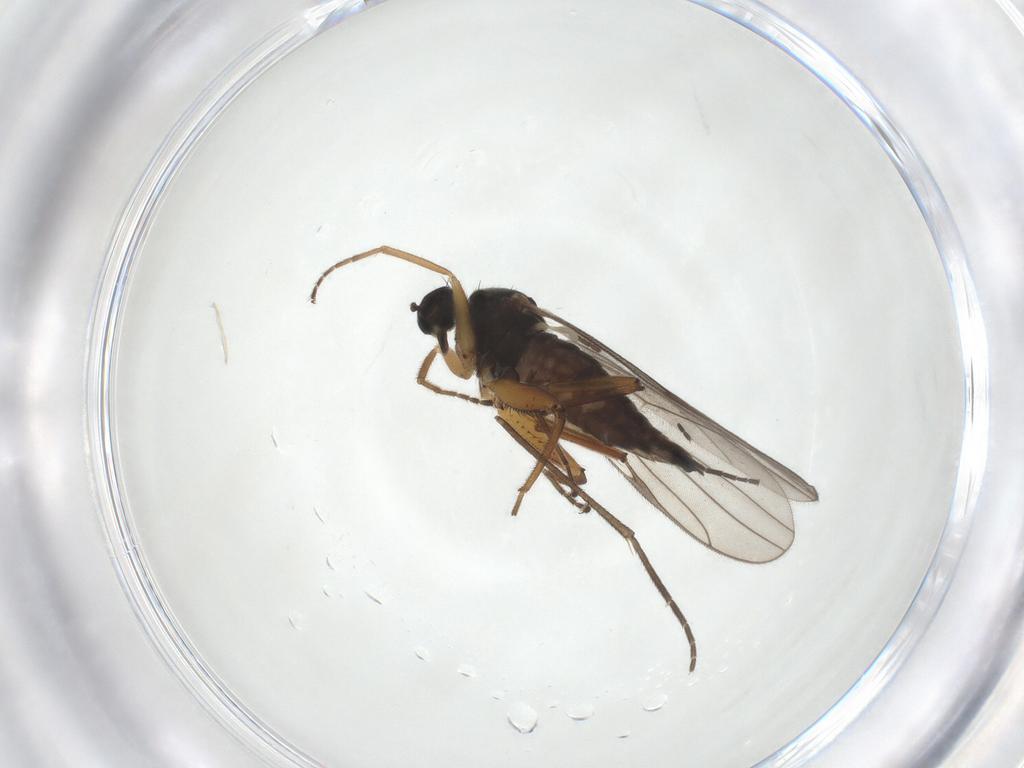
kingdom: Animalia
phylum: Arthropoda
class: Insecta
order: Diptera
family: Hybotidae
